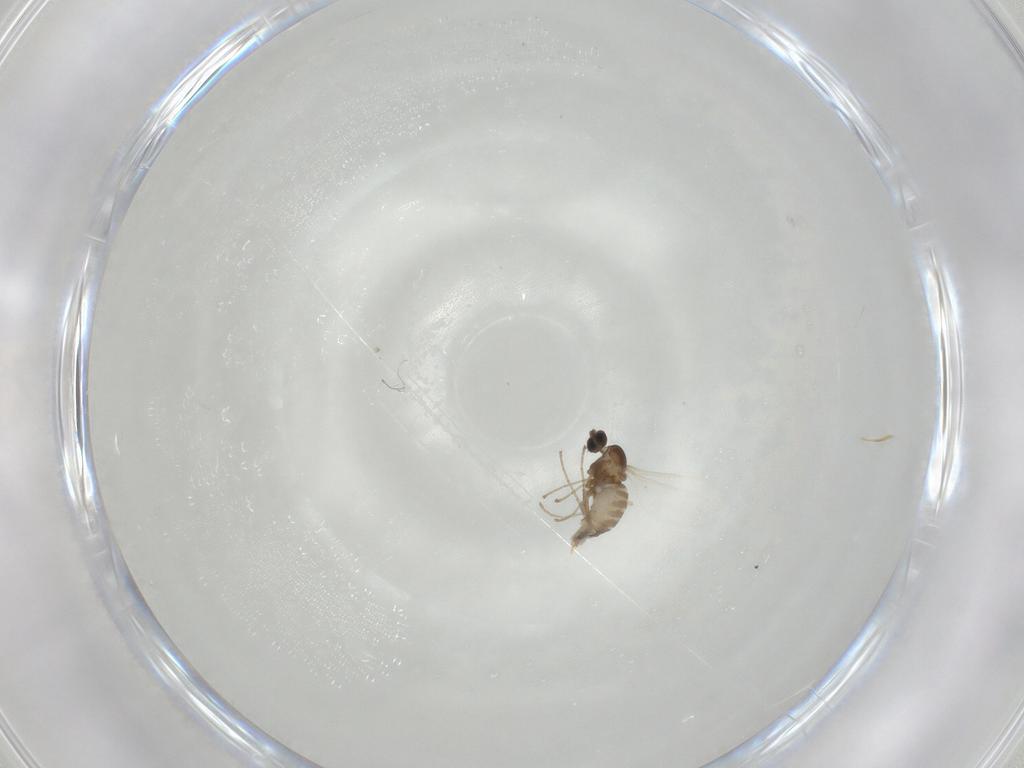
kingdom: Animalia
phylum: Arthropoda
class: Insecta
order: Diptera
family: Cecidomyiidae
